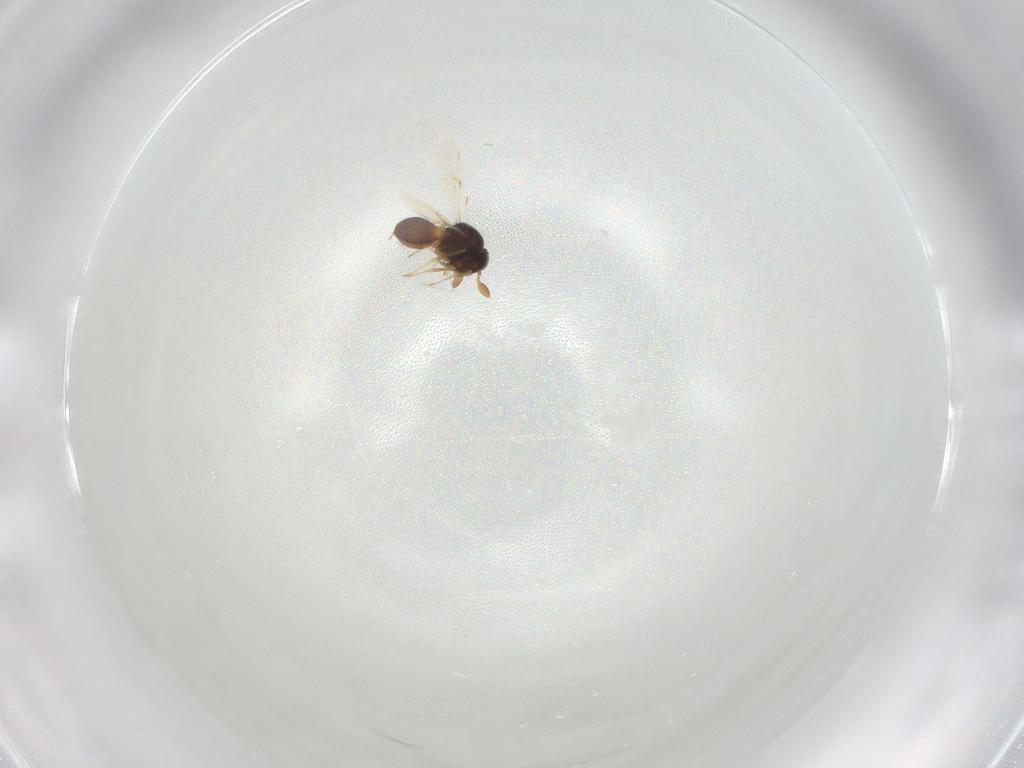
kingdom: Animalia
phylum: Arthropoda
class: Insecta
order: Hymenoptera
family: Scelionidae
